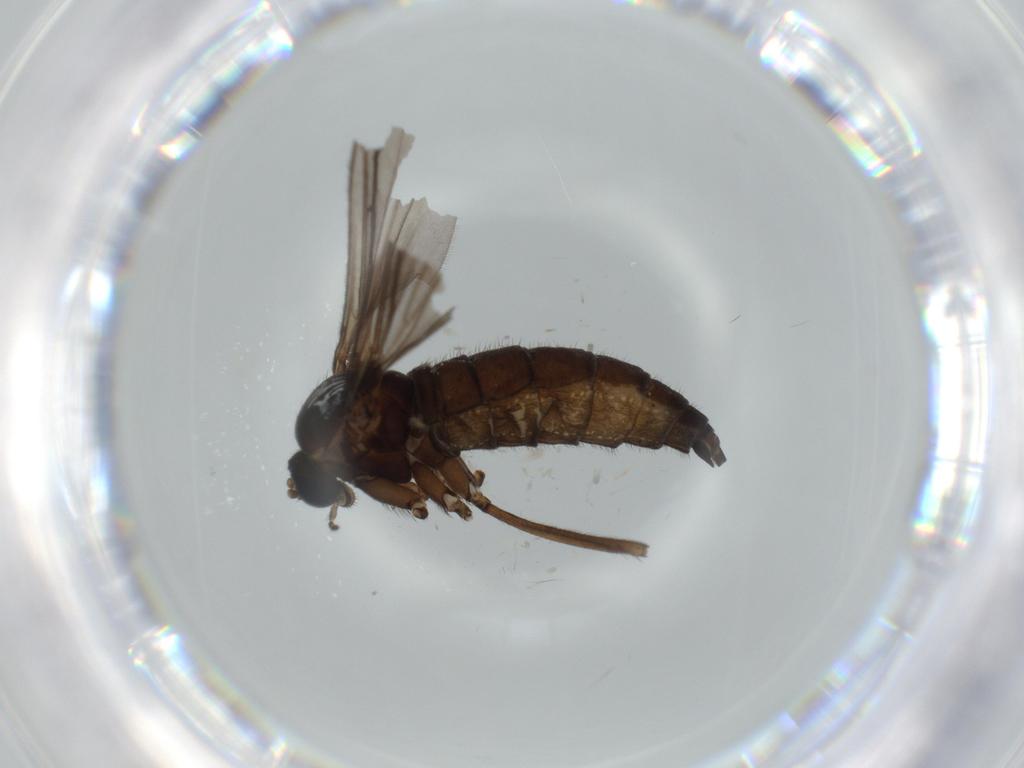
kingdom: Animalia
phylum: Arthropoda
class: Insecta
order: Diptera
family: Sciaridae
